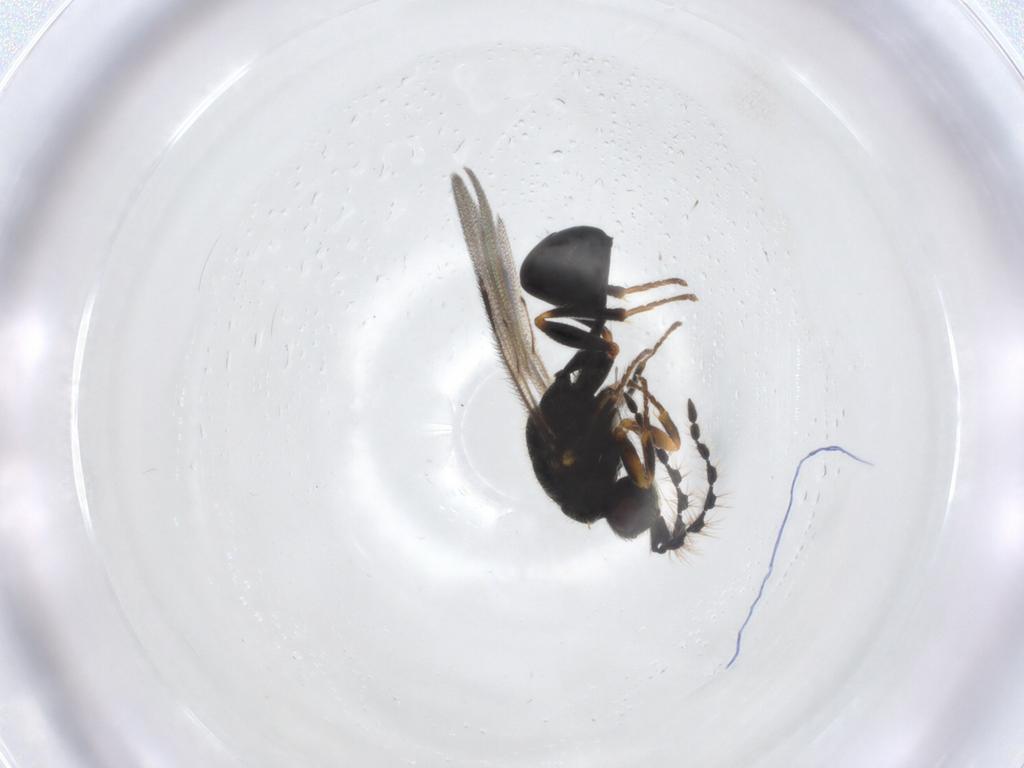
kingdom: Animalia
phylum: Arthropoda
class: Insecta
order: Hymenoptera
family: Eurytomidae
